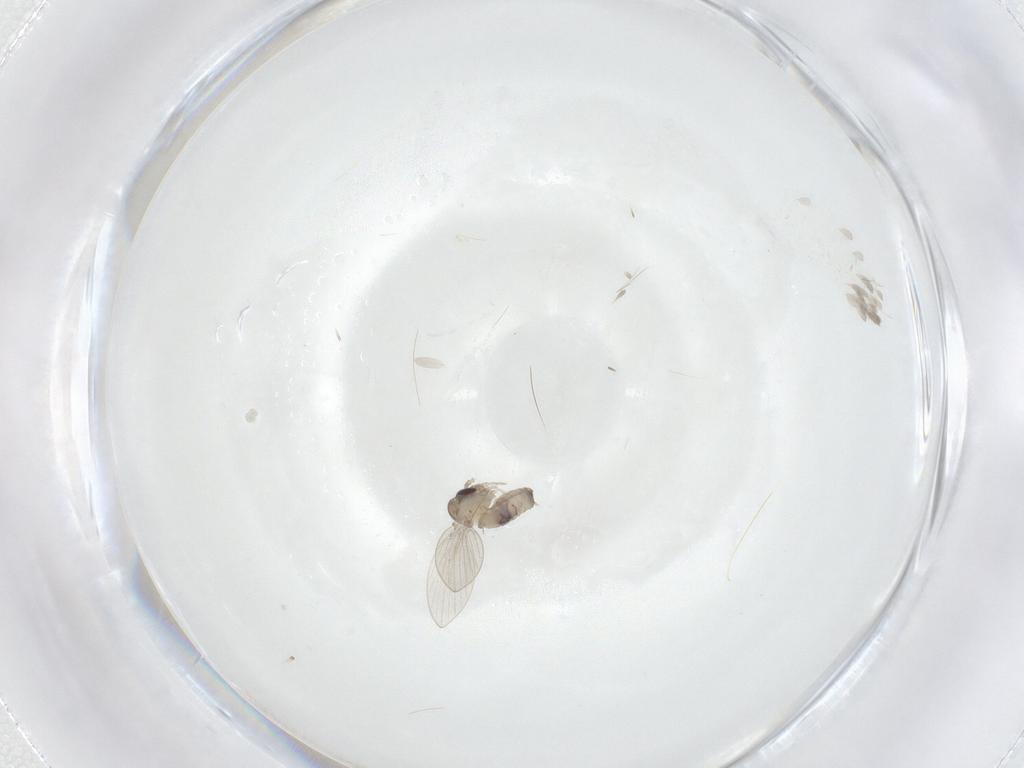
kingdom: Animalia
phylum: Arthropoda
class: Insecta
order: Diptera
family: Psychodidae
